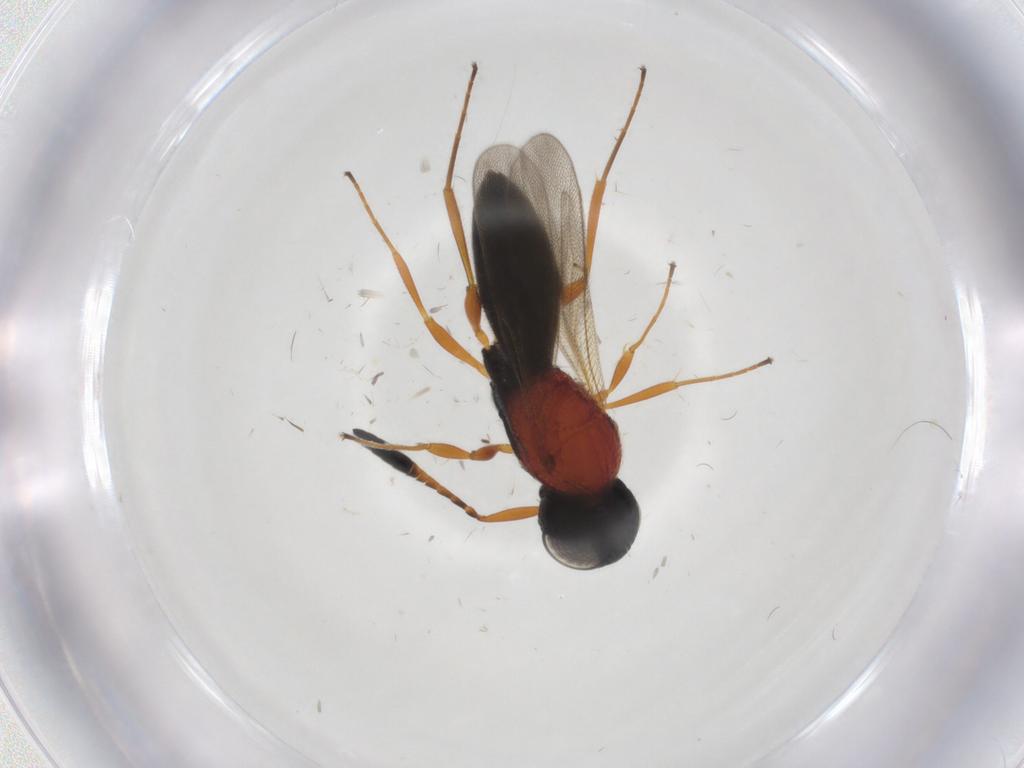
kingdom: Animalia
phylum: Arthropoda
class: Insecta
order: Hymenoptera
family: Scelionidae
